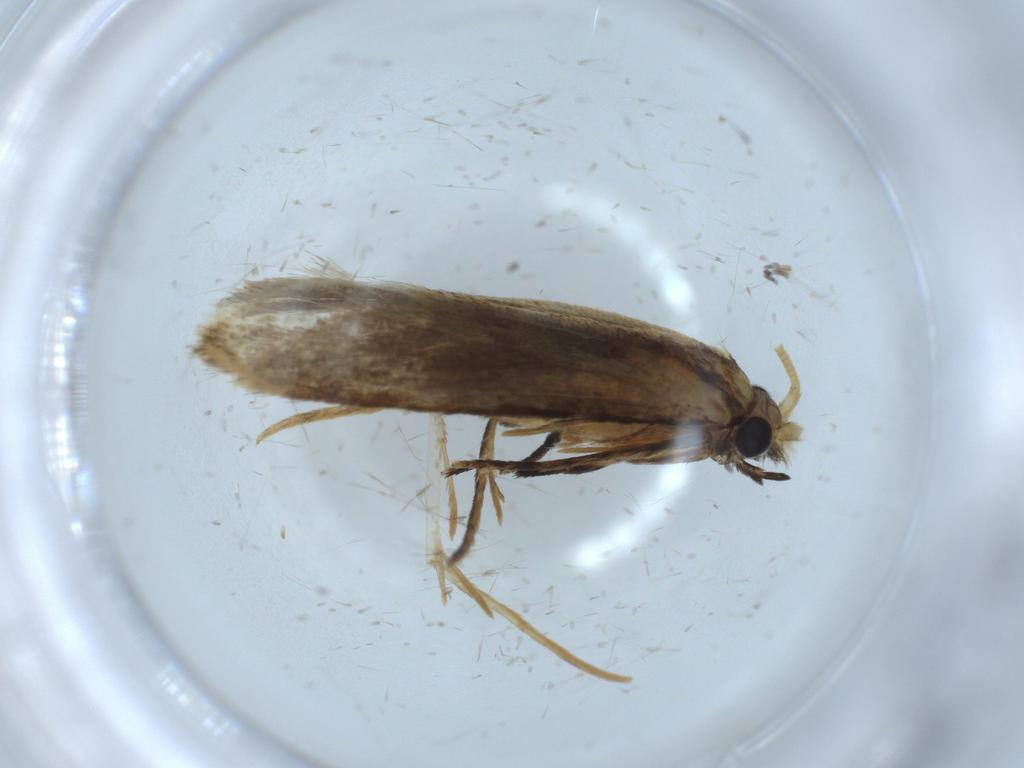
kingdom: Animalia
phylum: Arthropoda
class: Insecta
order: Lepidoptera
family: Tineidae
